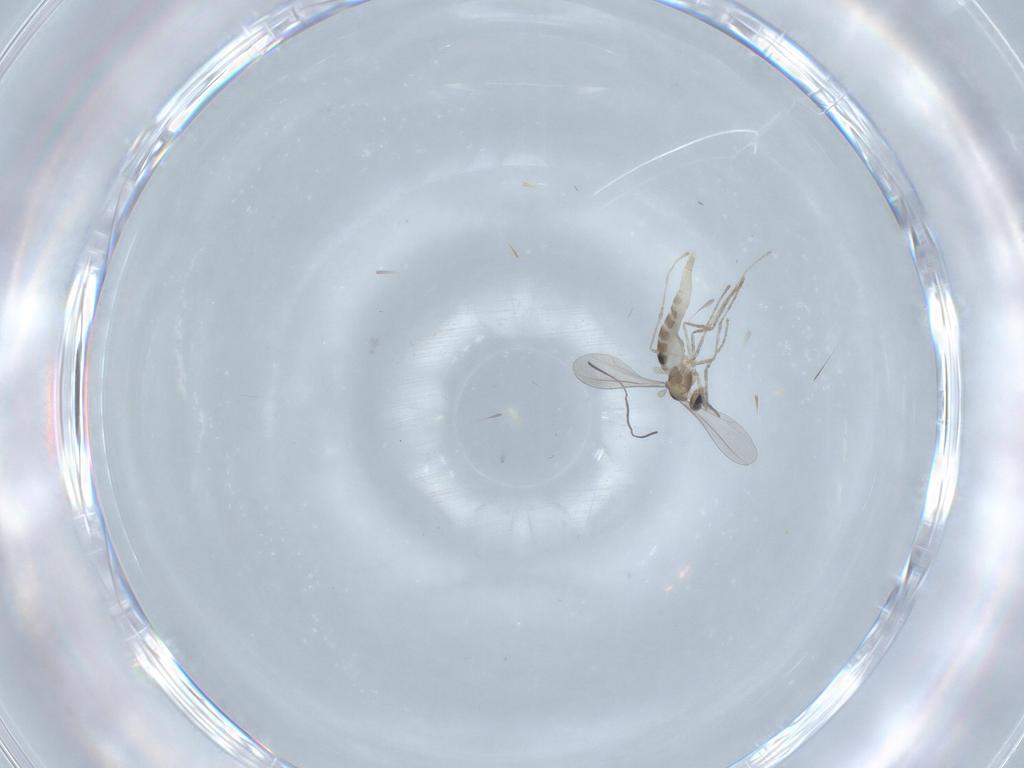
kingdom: Animalia
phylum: Arthropoda
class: Insecta
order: Diptera
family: Cecidomyiidae
